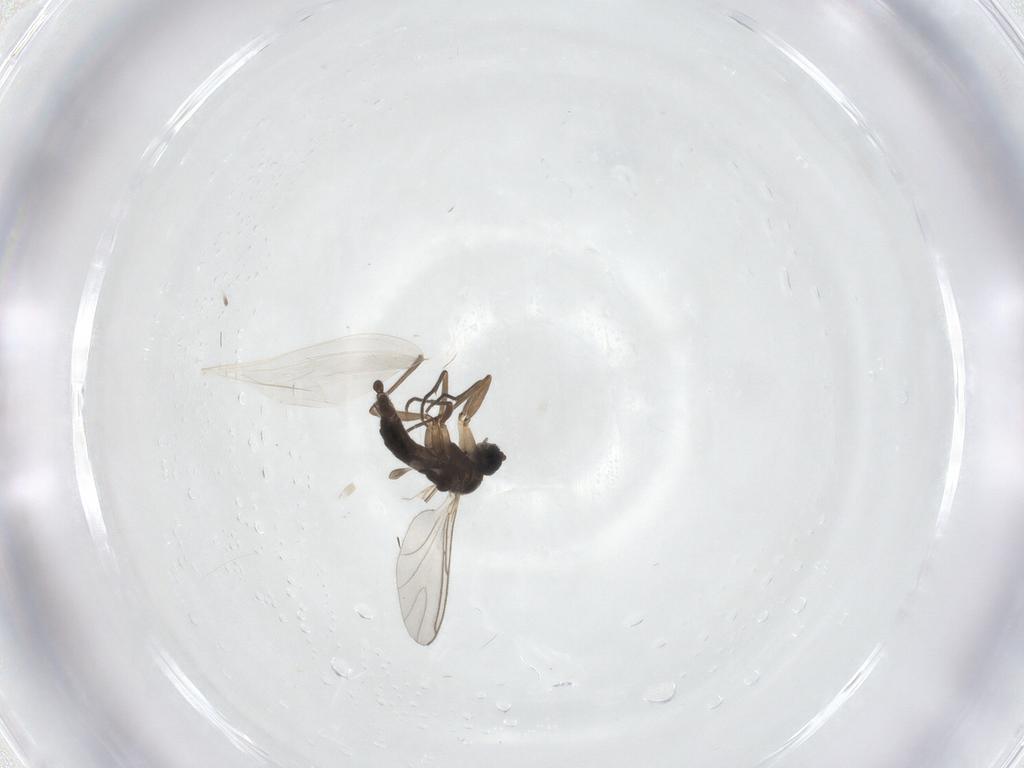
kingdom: Animalia
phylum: Arthropoda
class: Insecta
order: Diptera
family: Sciaridae
